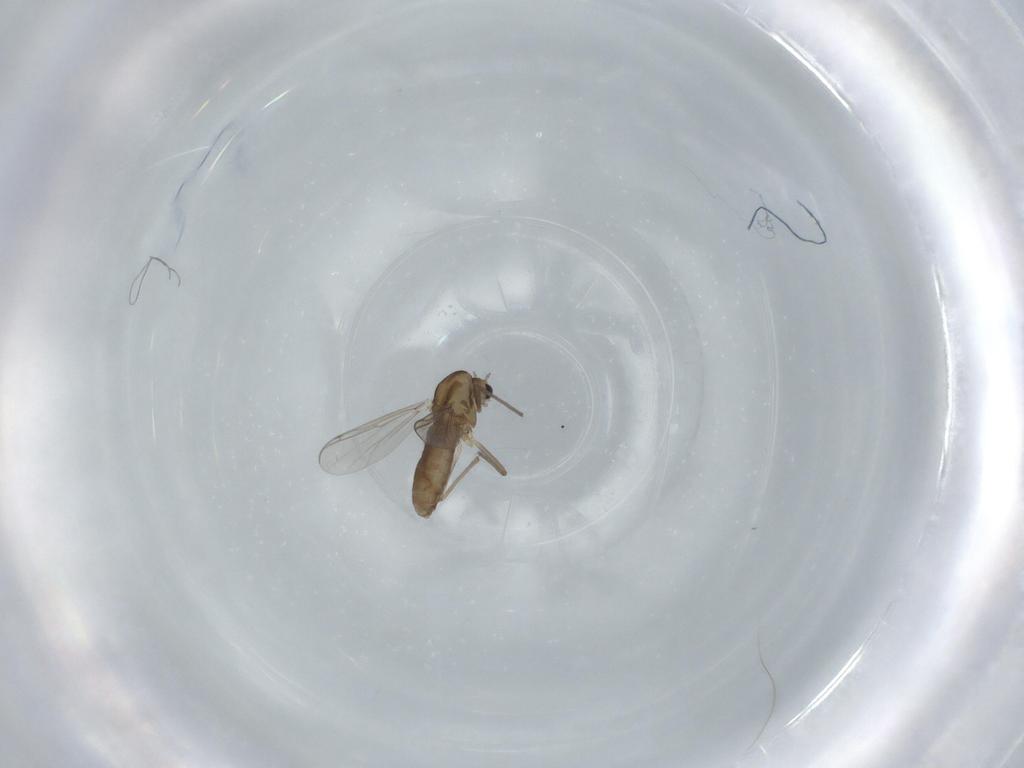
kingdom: Animalia
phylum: Arthropoda
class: Insecta
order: Diptera
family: Chironomidae
